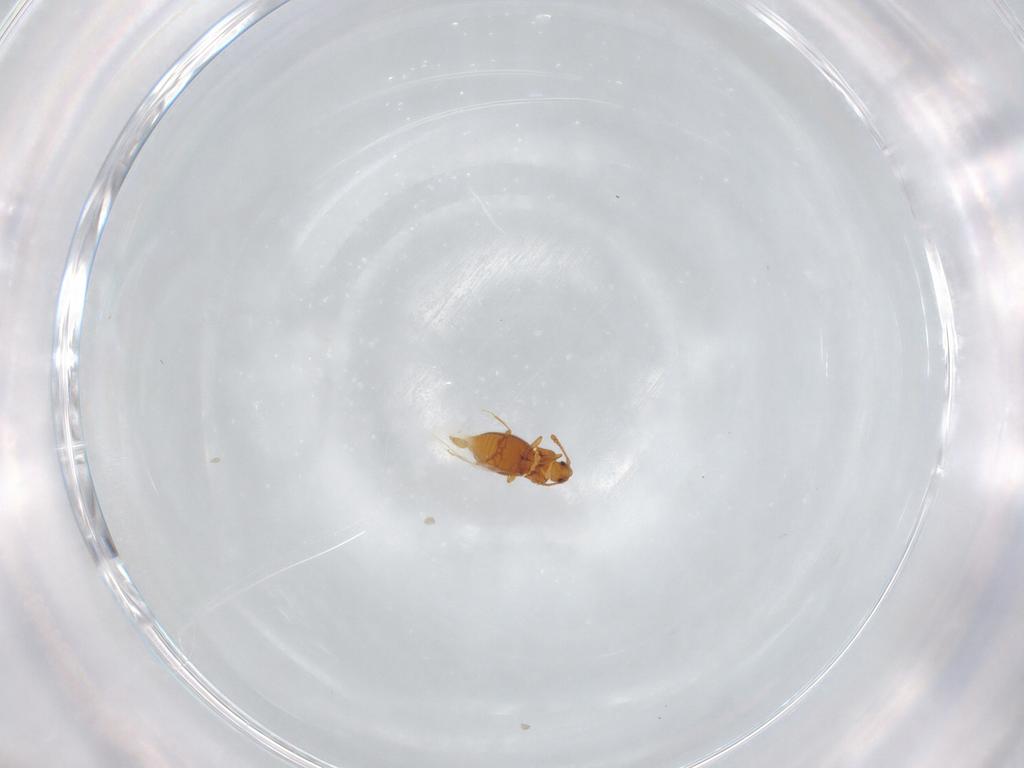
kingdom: Animalia
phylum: Arthropoda
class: Insecta
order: Coleoptera
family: Staphylinidae
